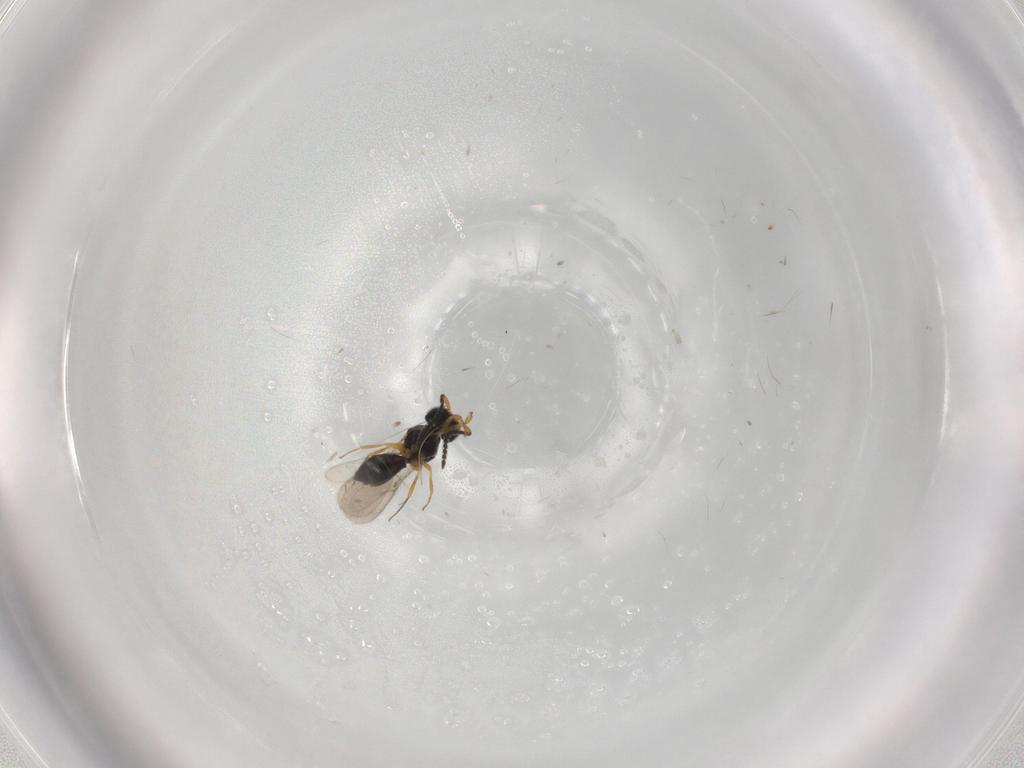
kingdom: Animalia
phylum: Arthropoda
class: Insecta
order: Hymenoptera
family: Scelionidae
